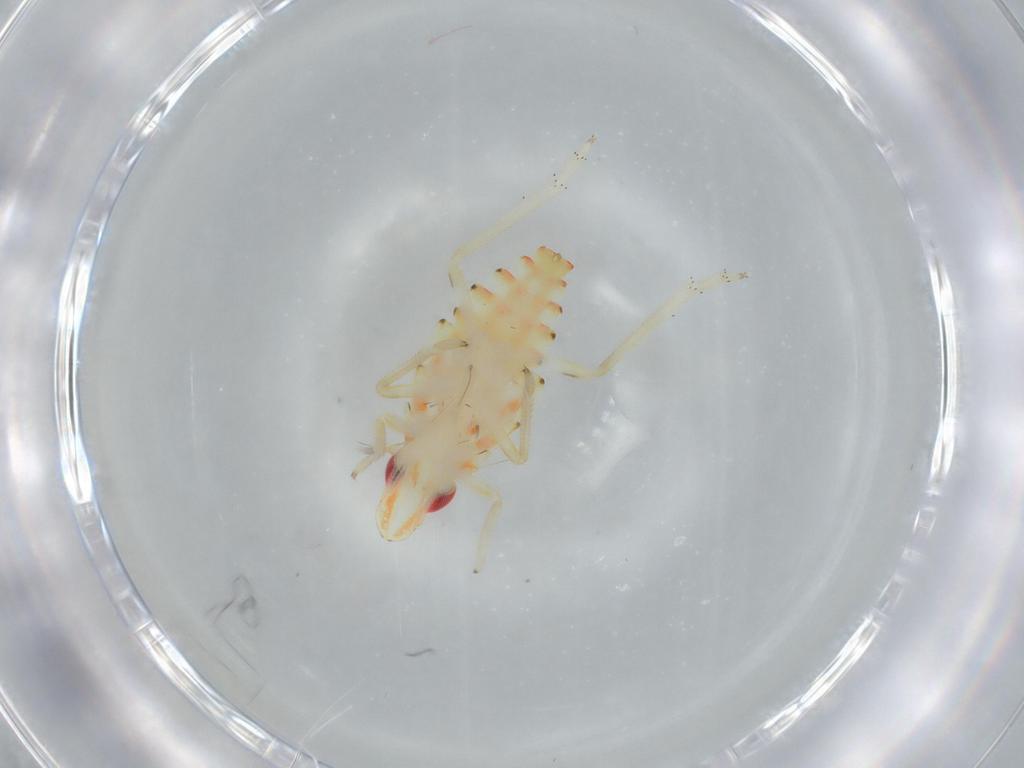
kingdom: Animalia
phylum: Arthropoda
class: Insecta
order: Hemiptera
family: Tropiduchidae
